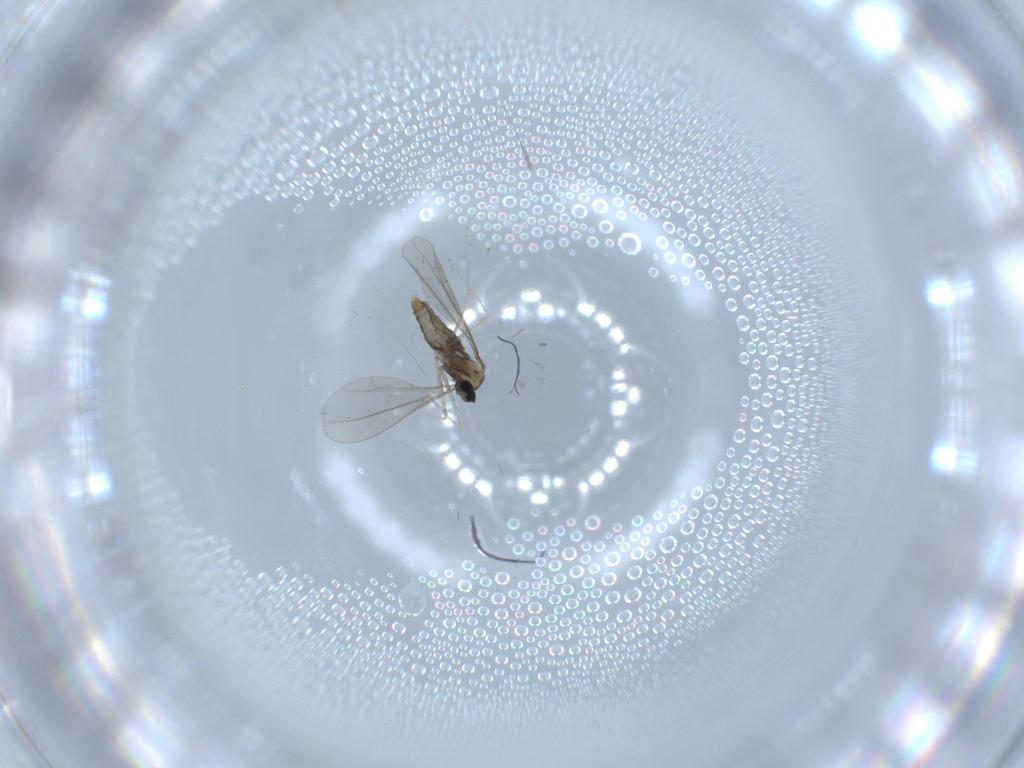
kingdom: Animalia
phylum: Arthropoda
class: Insecta
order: Diptera
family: Cecidomyiidae
